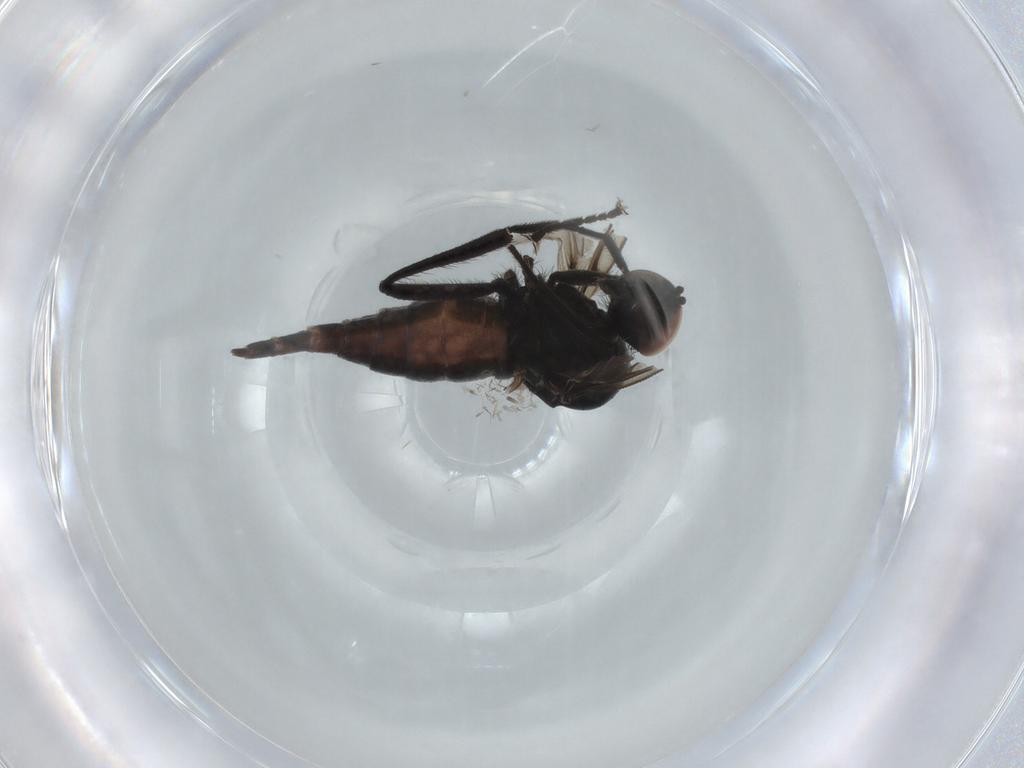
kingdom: Animalia
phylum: Arthropoda
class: Insecta
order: Diptera
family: Hybotidae
